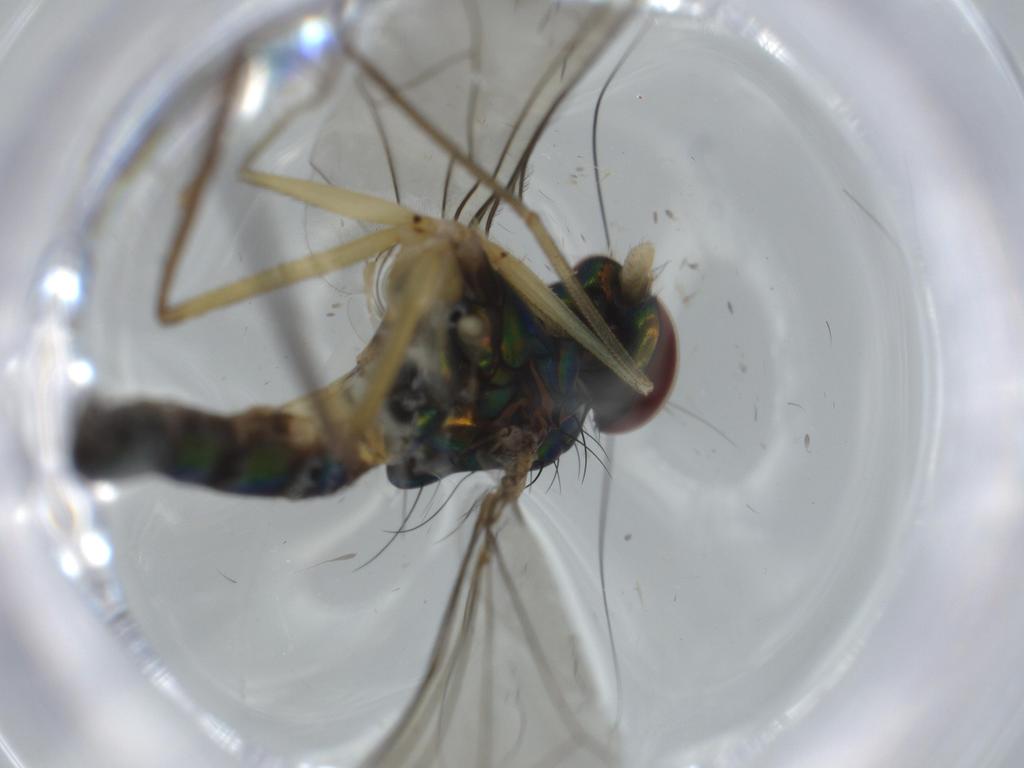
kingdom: Animalia
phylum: Arthropoda
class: Insecta
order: Diptera
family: Dolichopodidae
